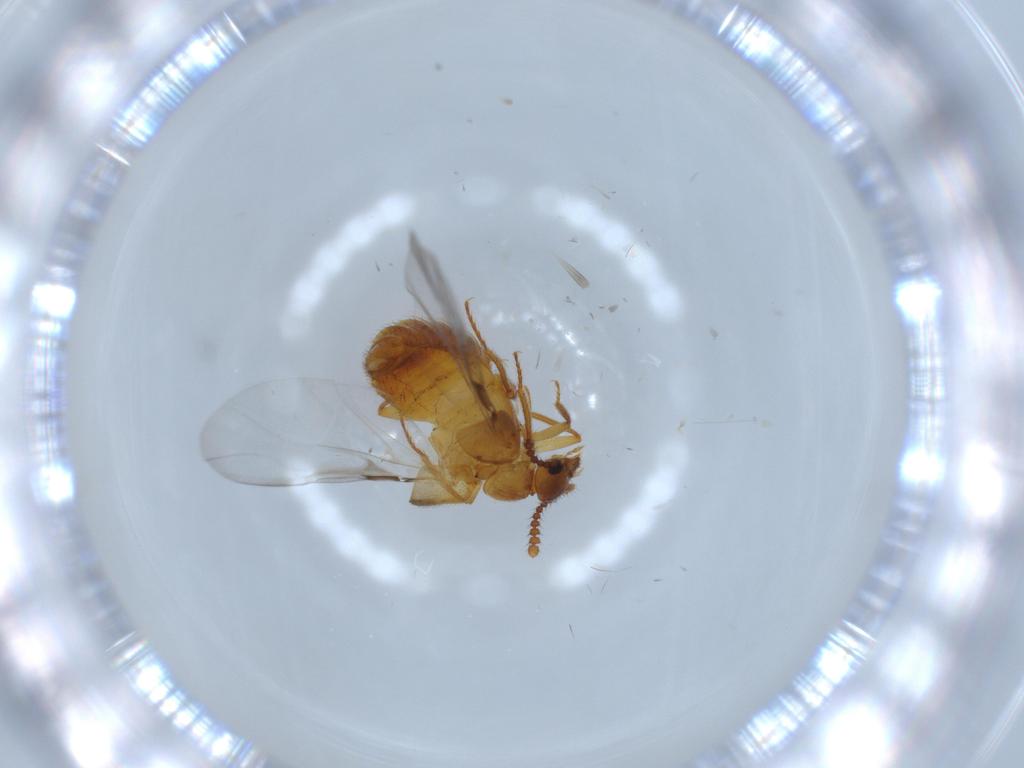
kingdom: Animalia
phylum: Arthropoda
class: Insecta
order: Coleoptera
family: Staphylinidae
